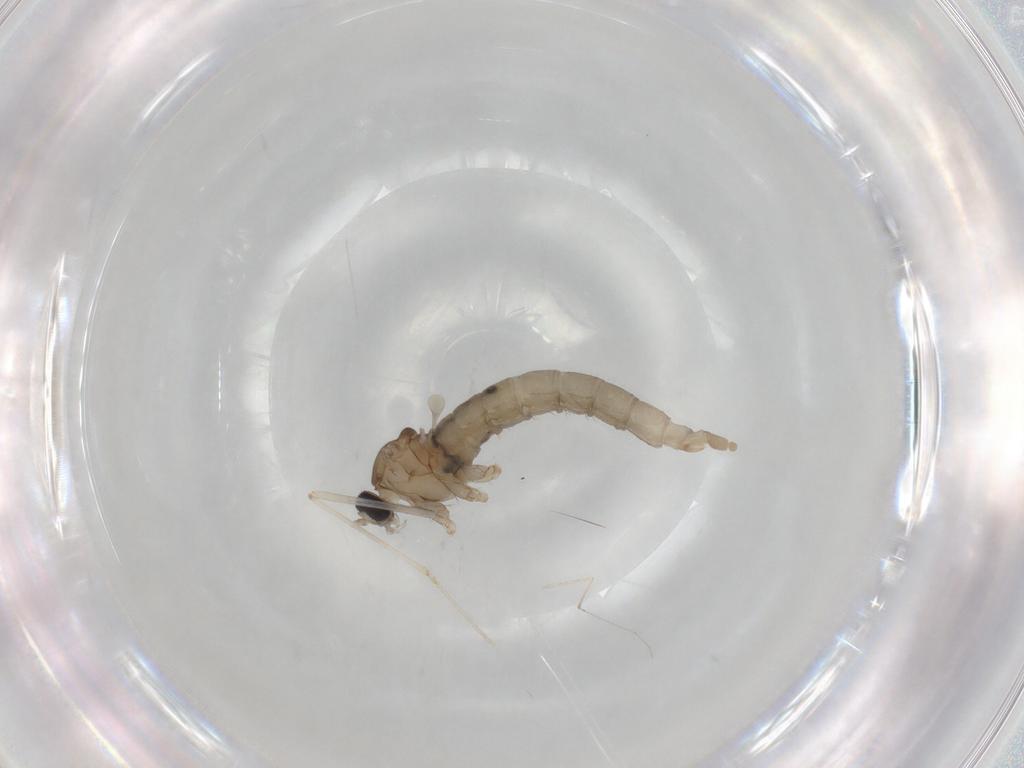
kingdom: Animalia
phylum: Arthropoda
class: Insecta
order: Diptera
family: Cecidomyiidae
